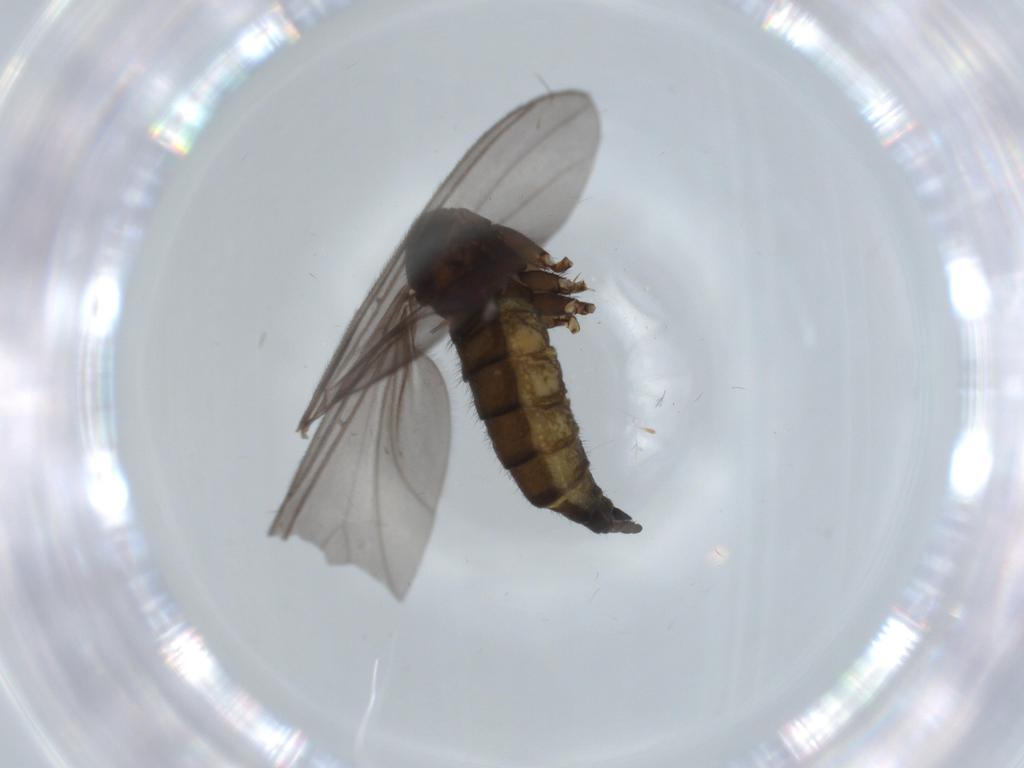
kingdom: Animalia
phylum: Arthropoda
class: Insecta
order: Diptera
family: Sciaridae
